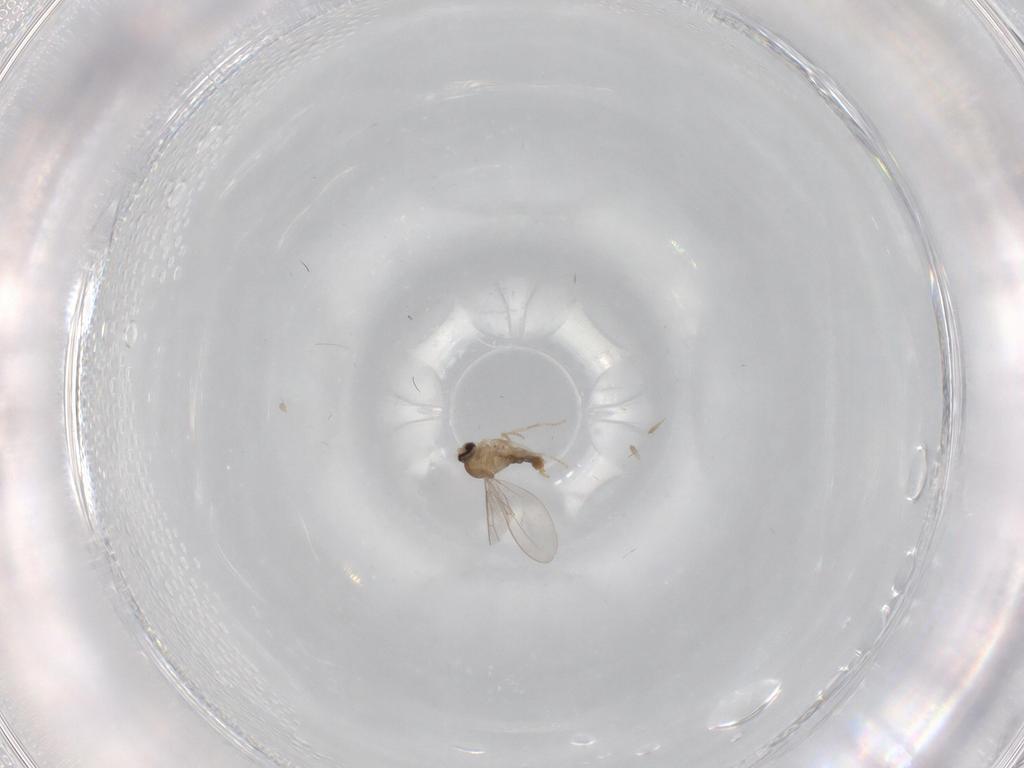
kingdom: Animalia
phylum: Arthropoda
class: Insecta
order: Diptera
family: Cecidomyiidae
